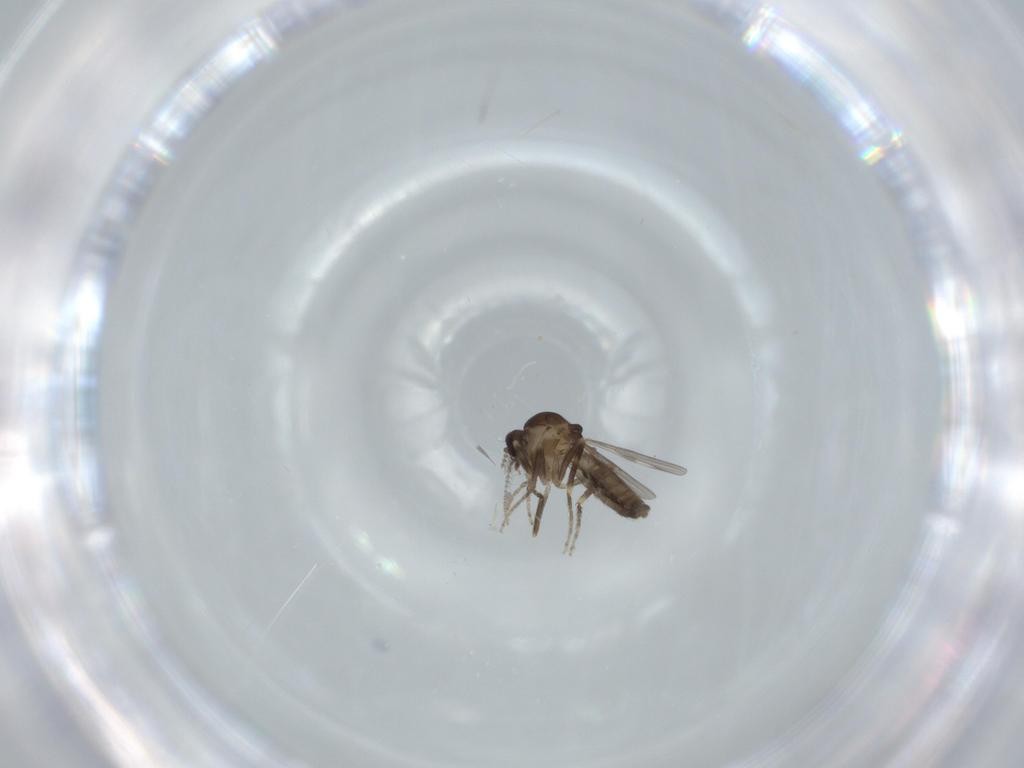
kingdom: Animalia
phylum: Arthropoda
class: Insecta
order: Diptera
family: Ceratopogonidae
